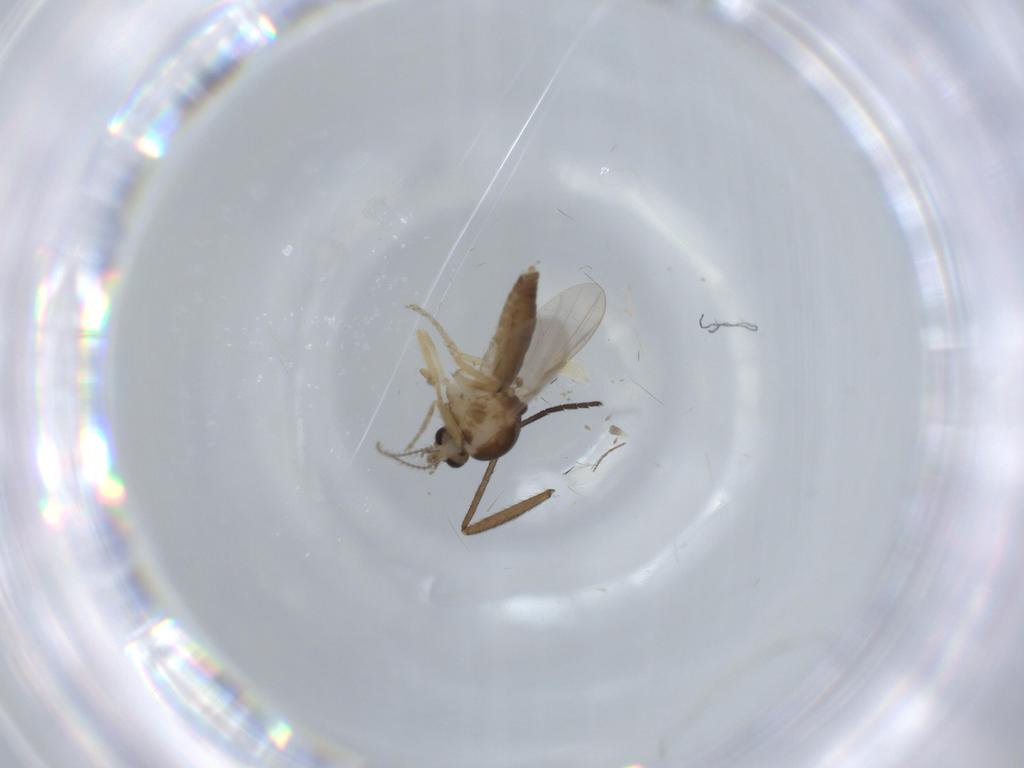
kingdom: Animalia
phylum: Arthropoda
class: Insecta
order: Diptera
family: Ceratopogonidae
